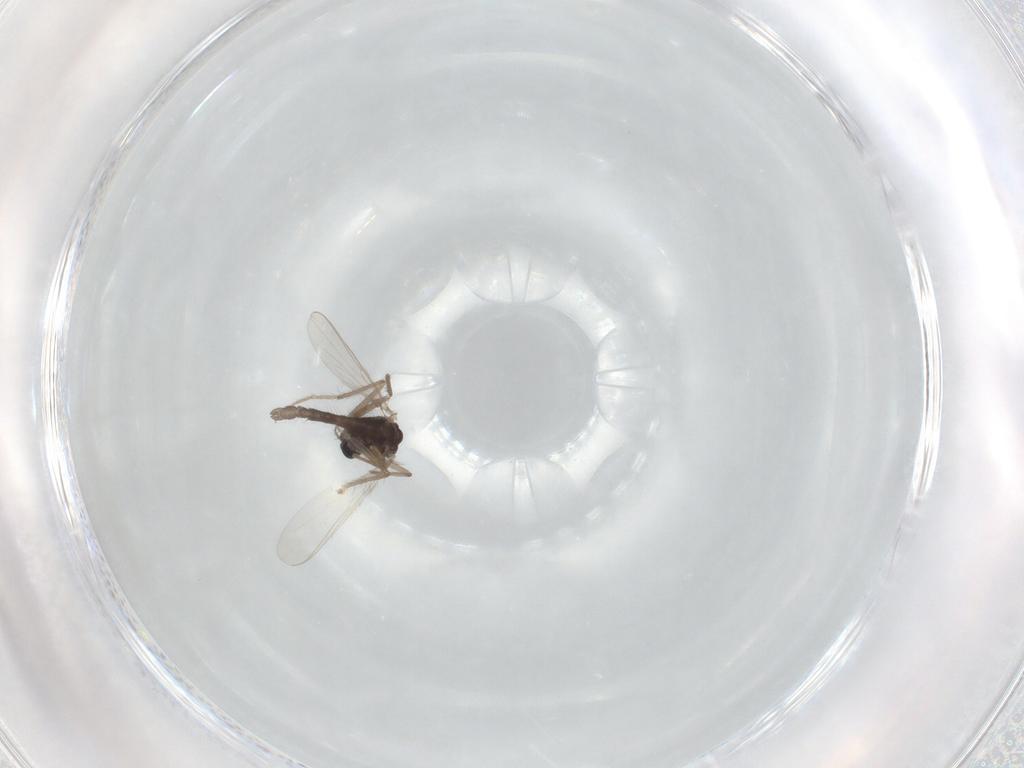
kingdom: Animalia
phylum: Arthropoda
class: Insecta
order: Diptera
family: Chironomidae
